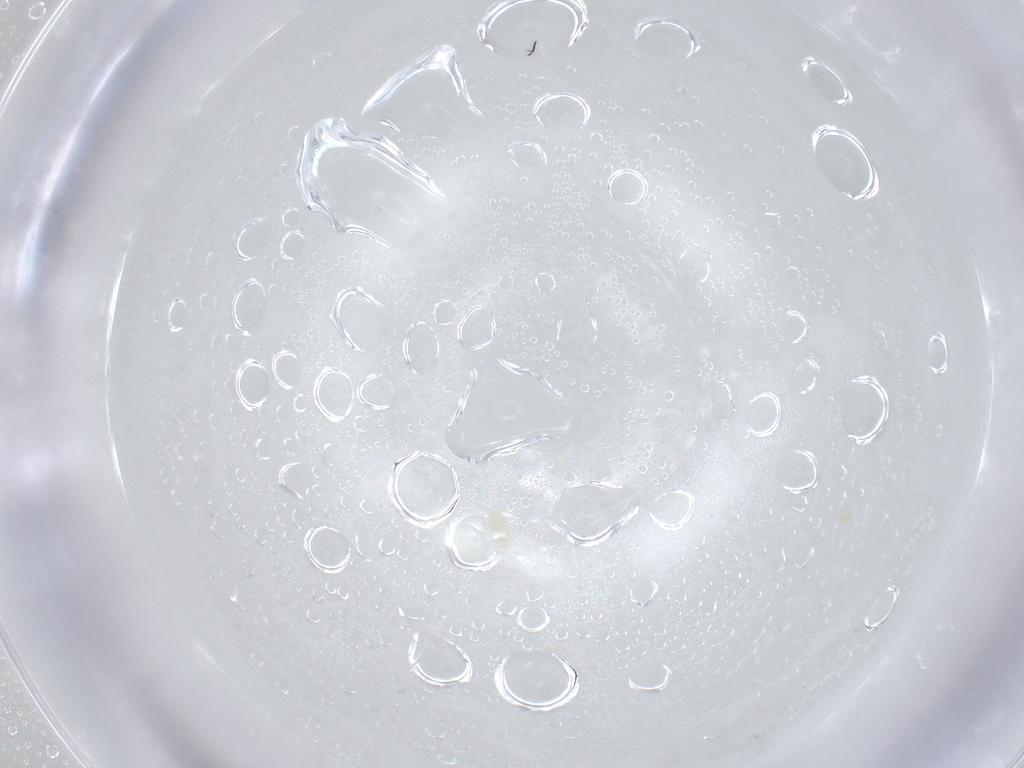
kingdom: Animalia
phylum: Arthropoda
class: Arachnida
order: Trombidiformes
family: Eupodidae
